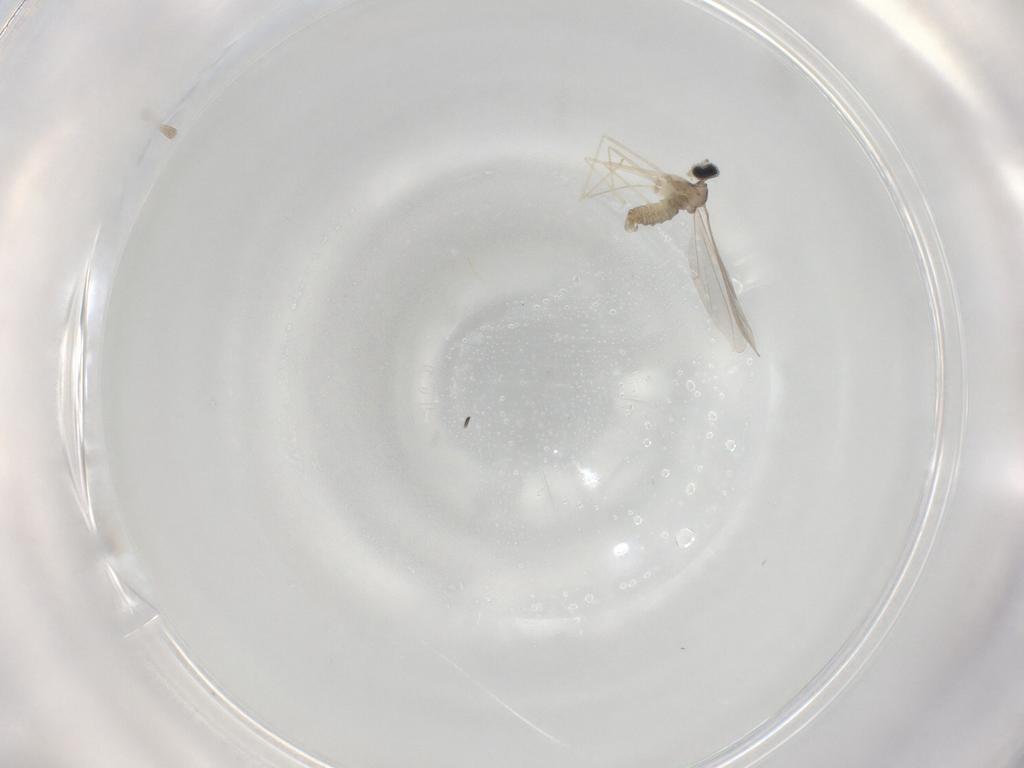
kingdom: Animalia
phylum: Arthropoda
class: Insecta
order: Diptera
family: Cecidomyiidae
